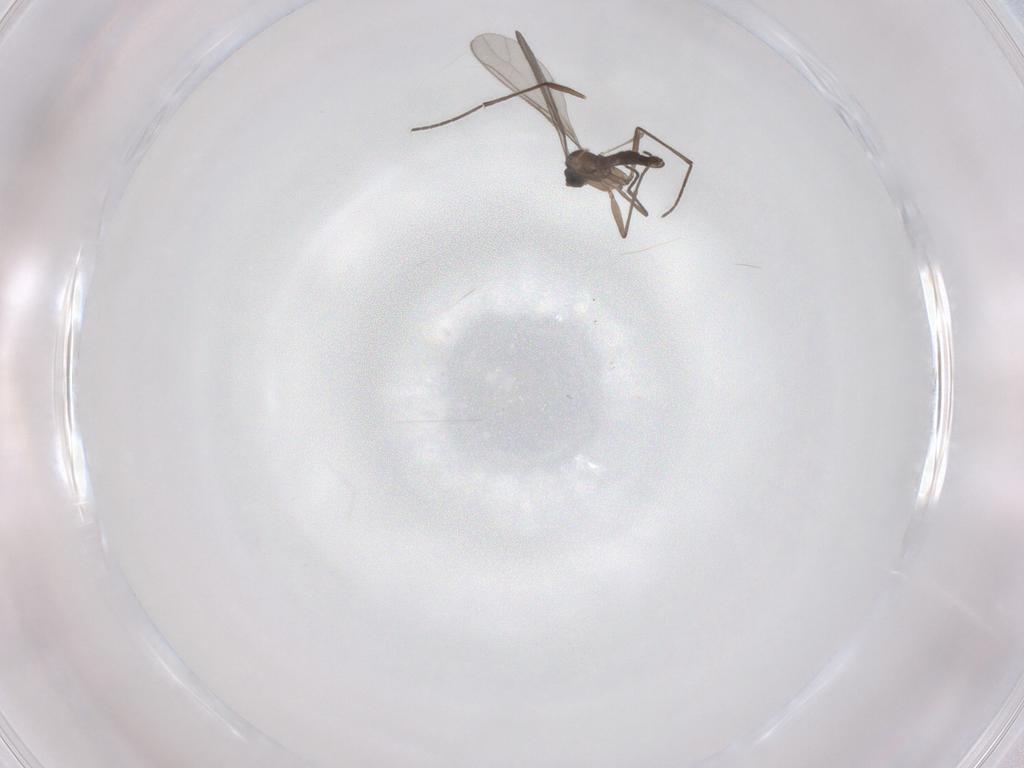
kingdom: Animalia
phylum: Arthropoda
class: Insecta
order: Diptera
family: Sciaridae
